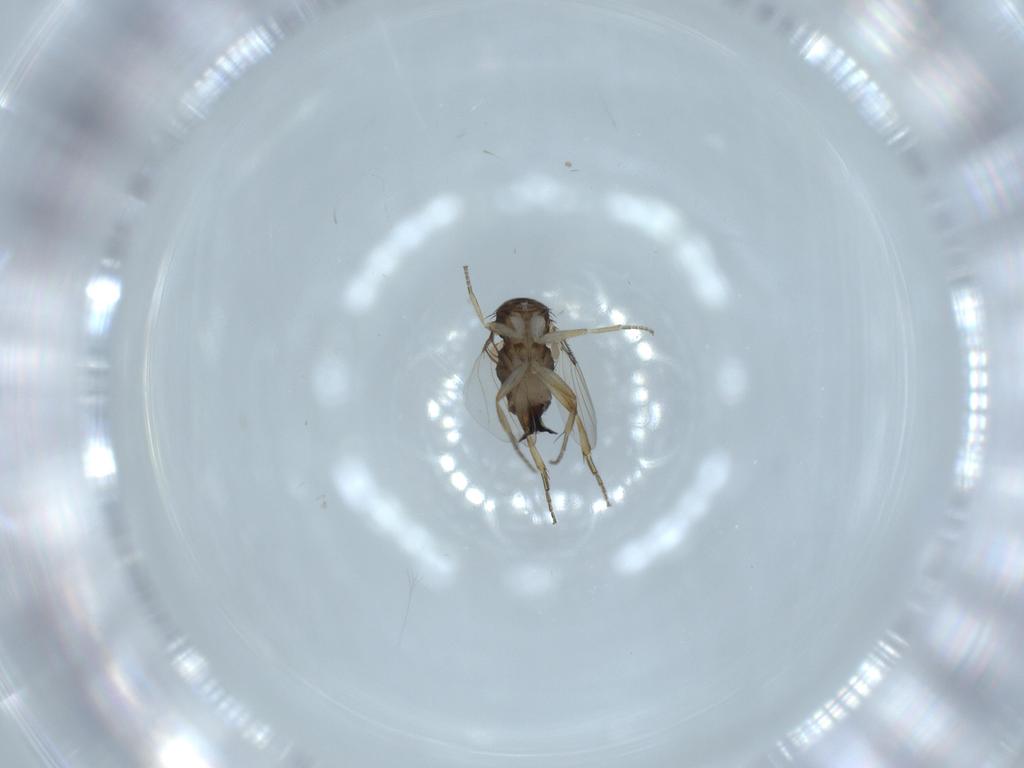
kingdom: Animalia
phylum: Arthropoda
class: Insecta
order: Diptera
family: Phoridae
